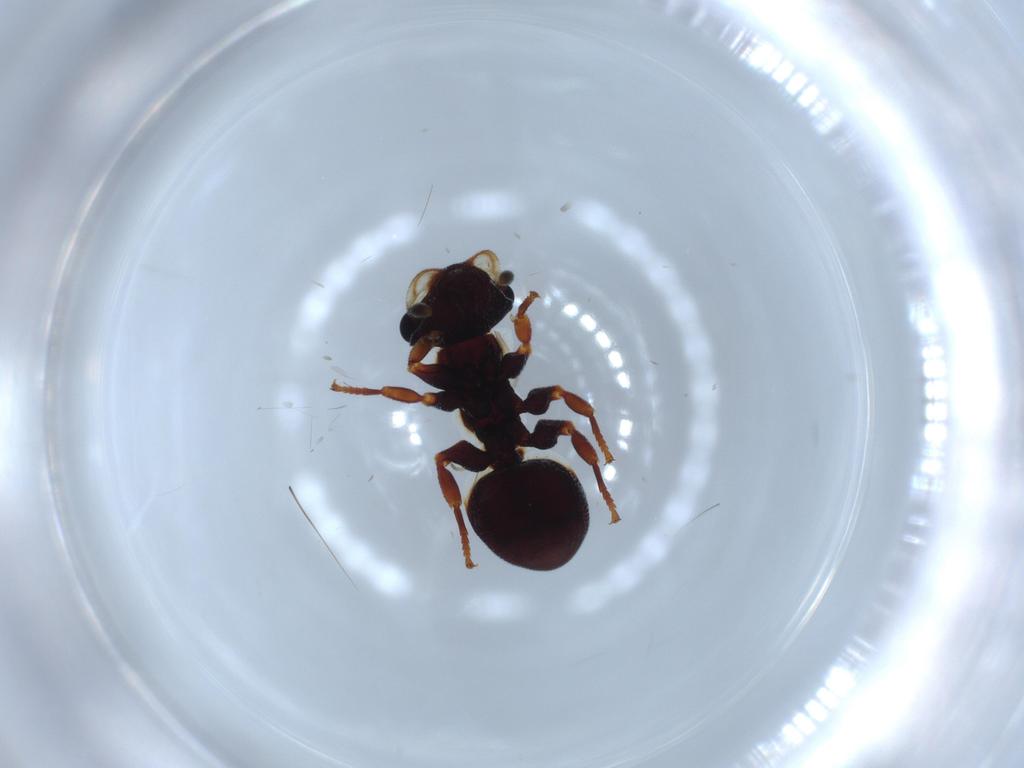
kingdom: Animalia
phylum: Arthropoda
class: Insecta
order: Hymenoptera
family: Formicidae
